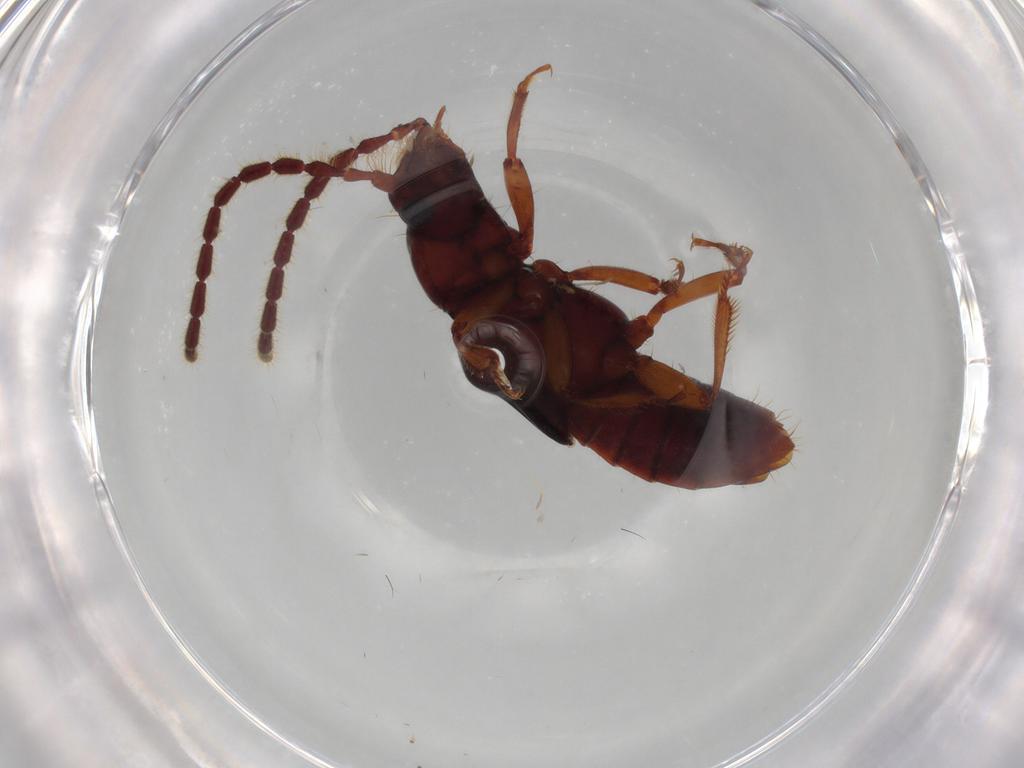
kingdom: Animalia
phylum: Arthropoda
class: Insecta
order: Coleoptera
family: Staphylinidae
